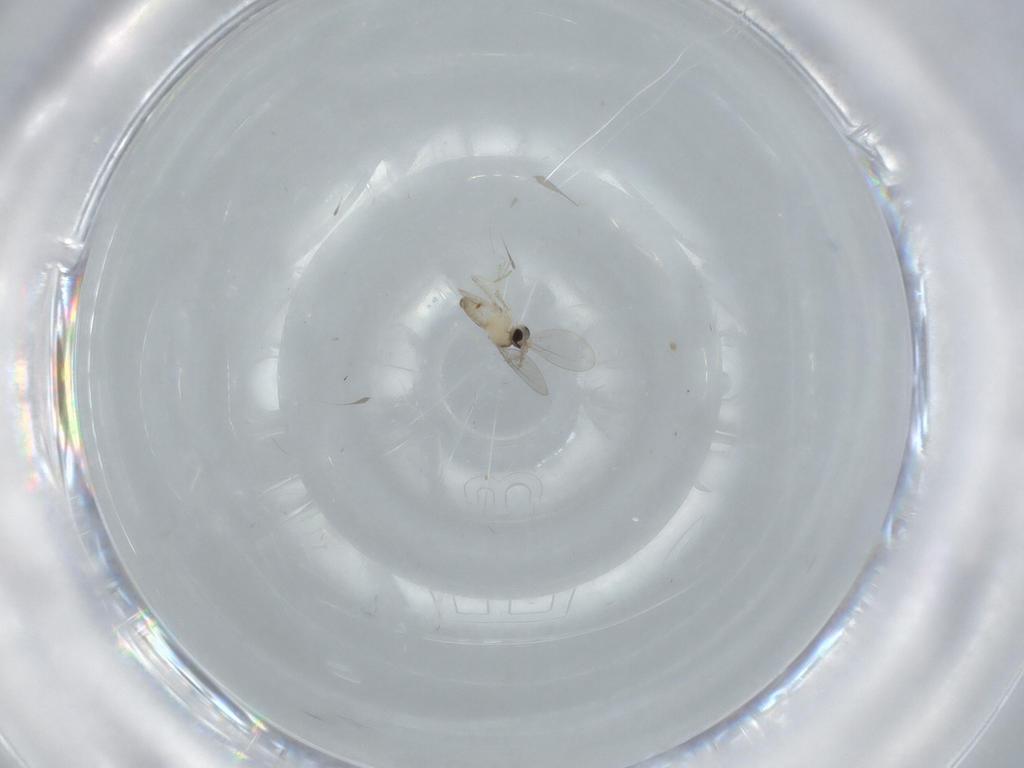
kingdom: Animalia
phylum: Arthropoda
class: Insecta
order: Diptera
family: Cecidomyiidae
